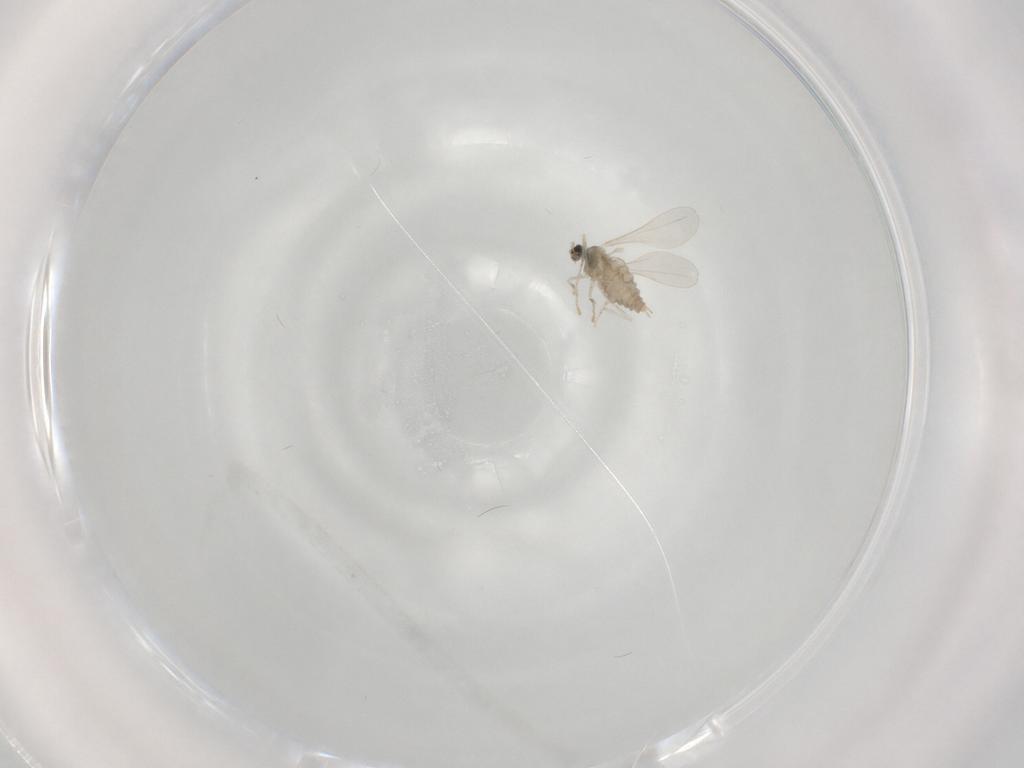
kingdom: Animalia
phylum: Arthropoda
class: Insecta
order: Diptera
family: Cecidomyiidae
